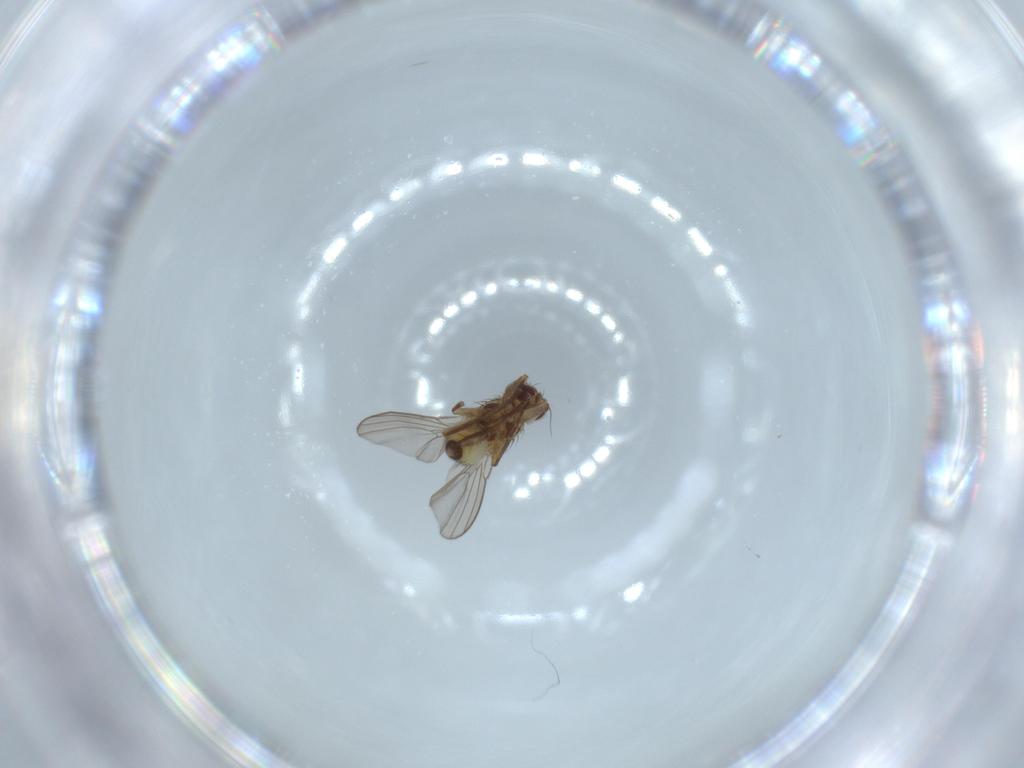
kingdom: Animalia
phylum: Arthropoda
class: Insecta
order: Diptera
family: Agromyzidae
